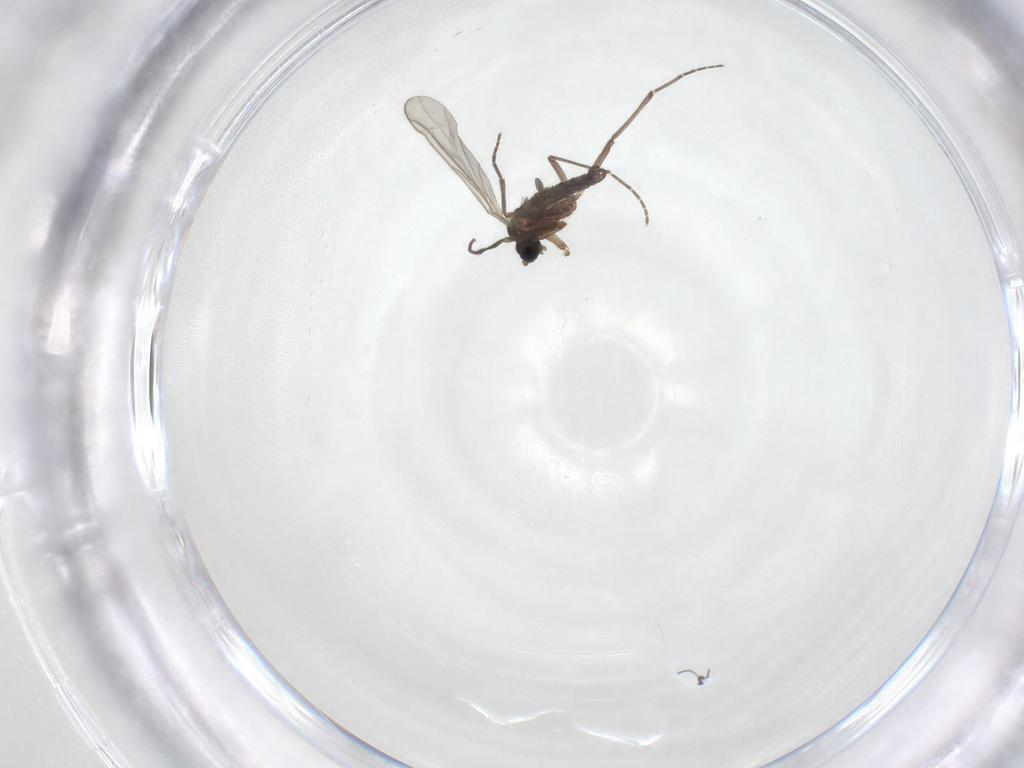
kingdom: Animalia
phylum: Arthropoda
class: Insecta
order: Diptera
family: Sciaridae
